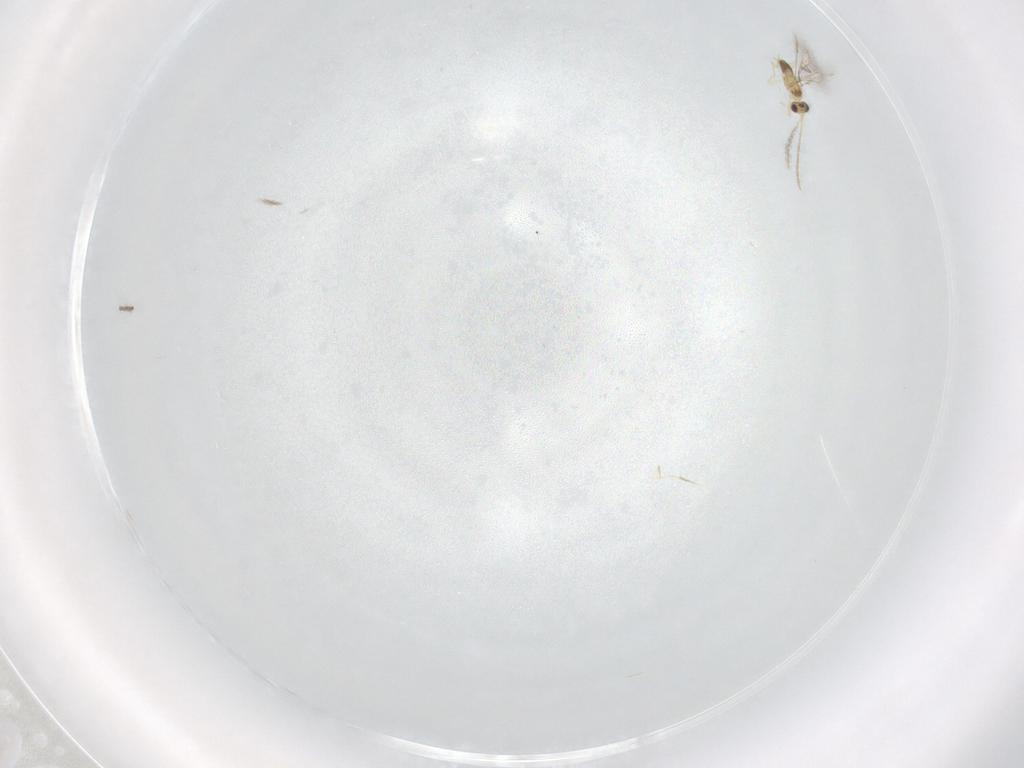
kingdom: Animalia
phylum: Arthropoda
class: Insecta
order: Hymenoptera
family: Mymaridae
